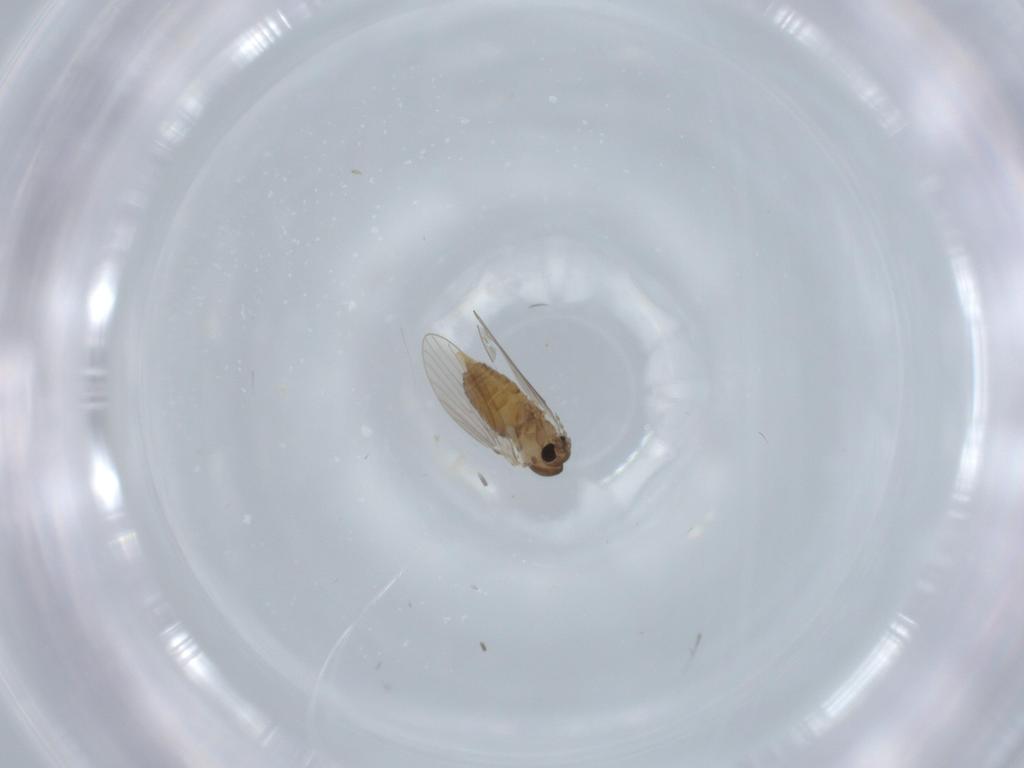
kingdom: Animalia
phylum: Arthropoda
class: Insecta
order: Diptera
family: Psychodidae
